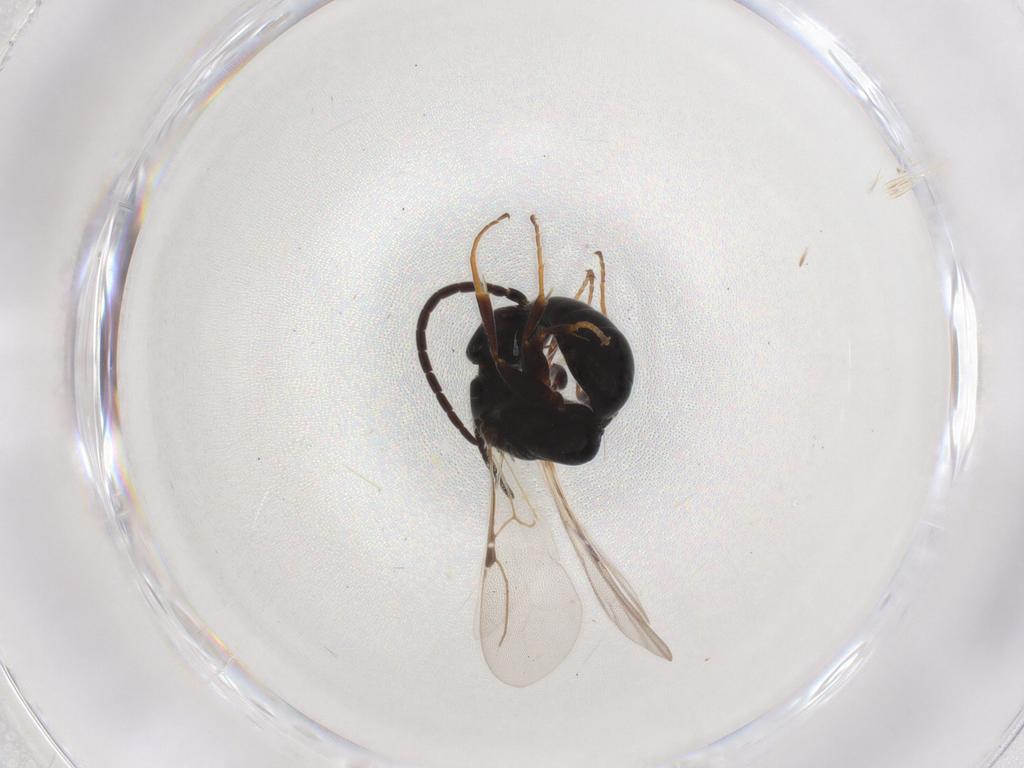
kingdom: Animalia
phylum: Arthropoda
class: Insecta
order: Hymenoptera
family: Bethylidae
